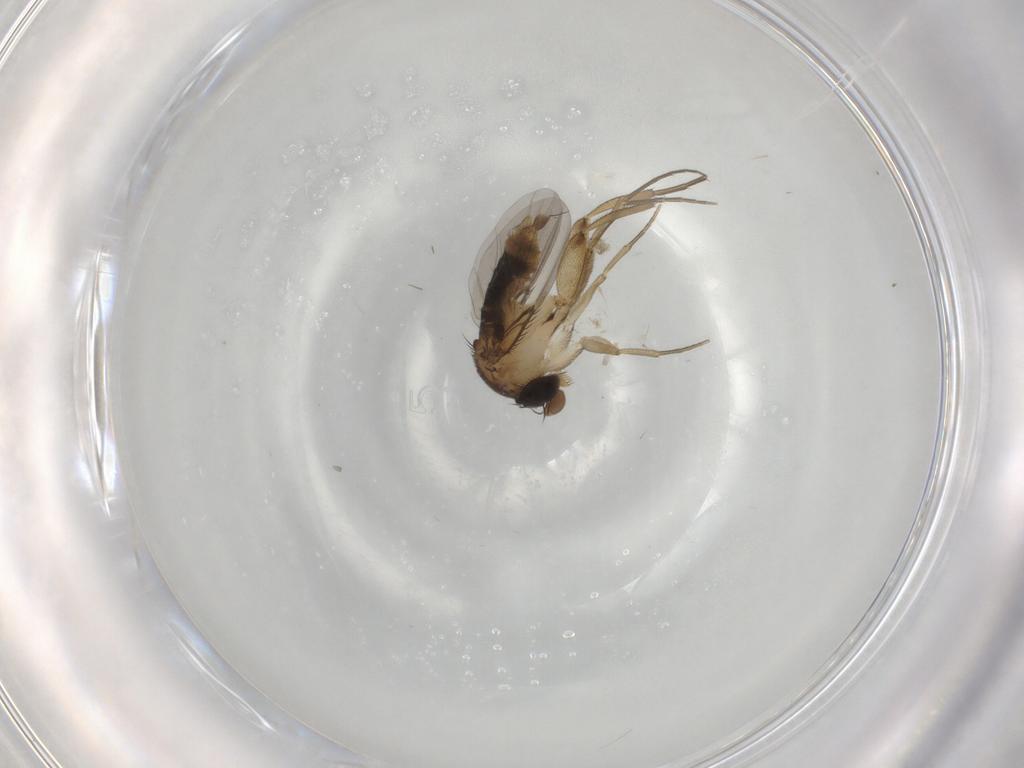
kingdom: Animalia
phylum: Arthropoda
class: Insecta
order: Diptera
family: Phoridae
